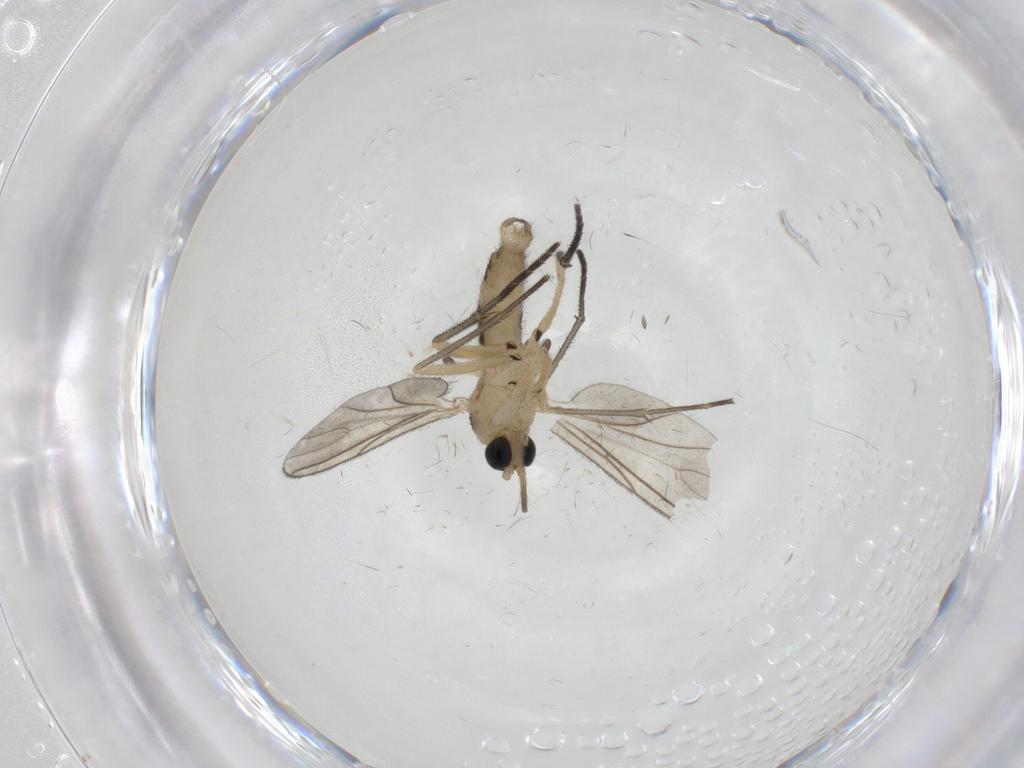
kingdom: Animalia
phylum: Arthropoda
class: Insecta
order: Diptera
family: Sciaridae
